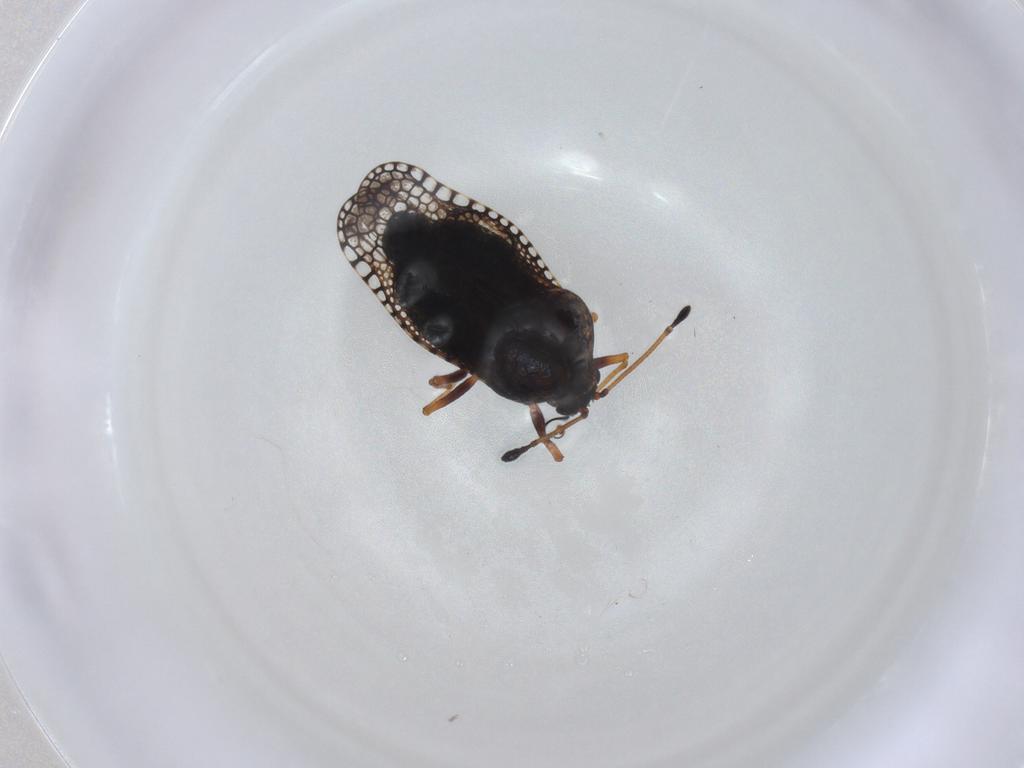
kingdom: Animalia
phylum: Arthropoda
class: Insecta
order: Hemiptera
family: Tingidae
